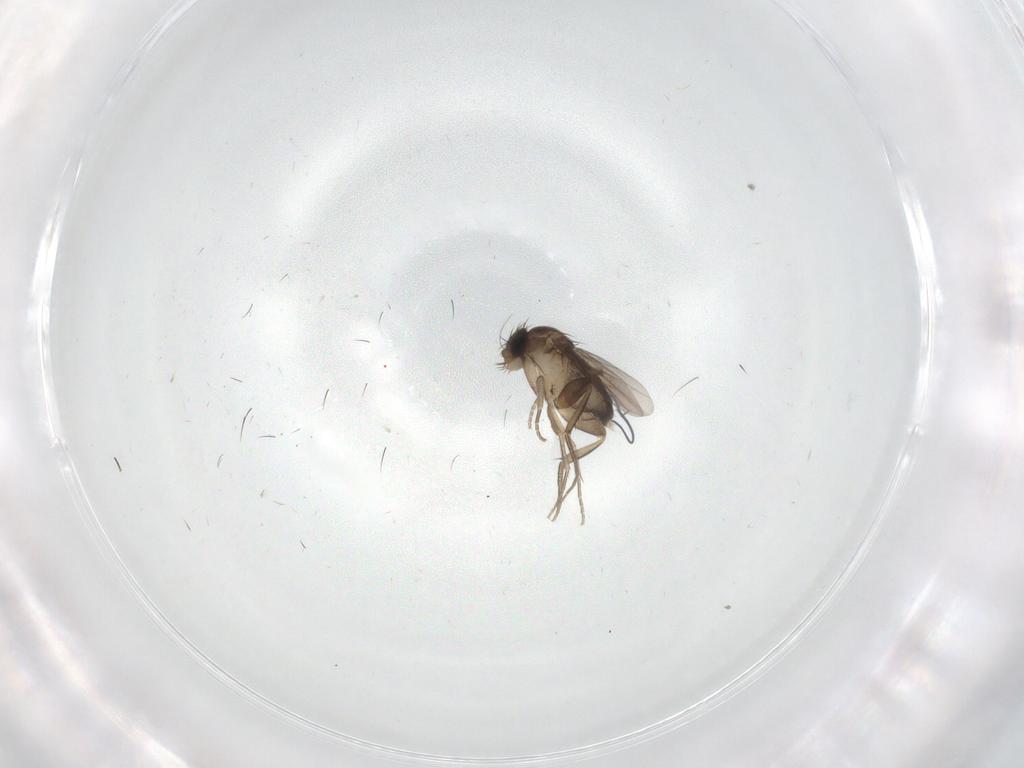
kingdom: Animalia
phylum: Arthropoda
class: Insecta
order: Diptera
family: Phoridae
